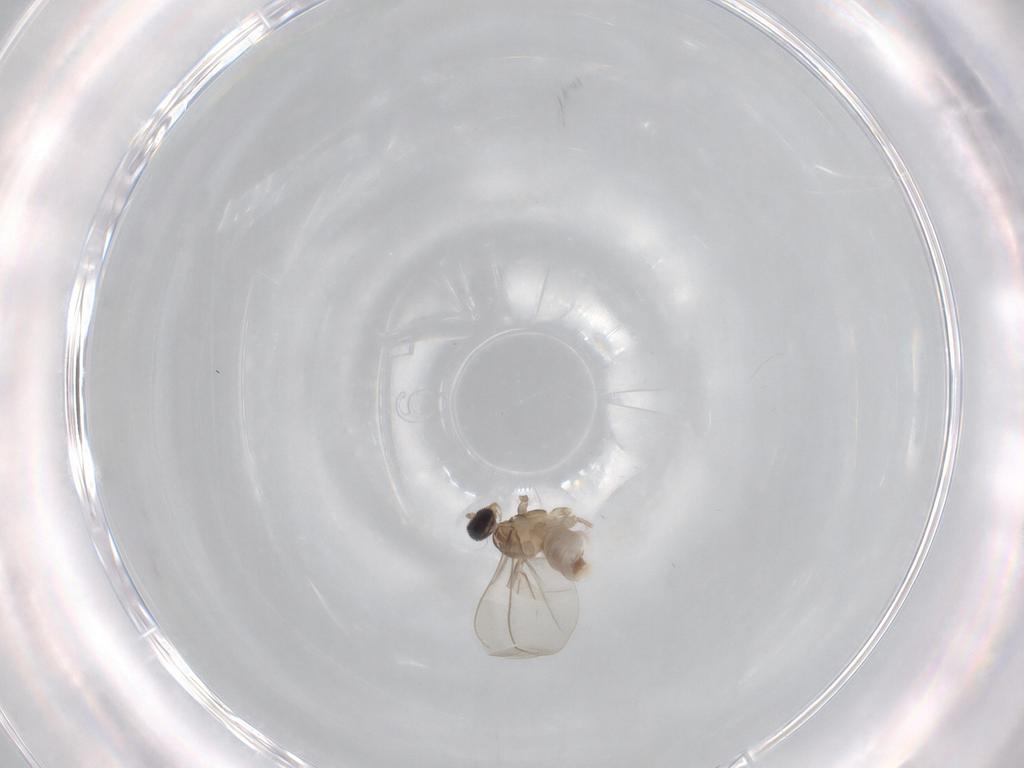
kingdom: Animalia
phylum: Arthropoda
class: Insecta
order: Diptera
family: Cecidomyiidae
